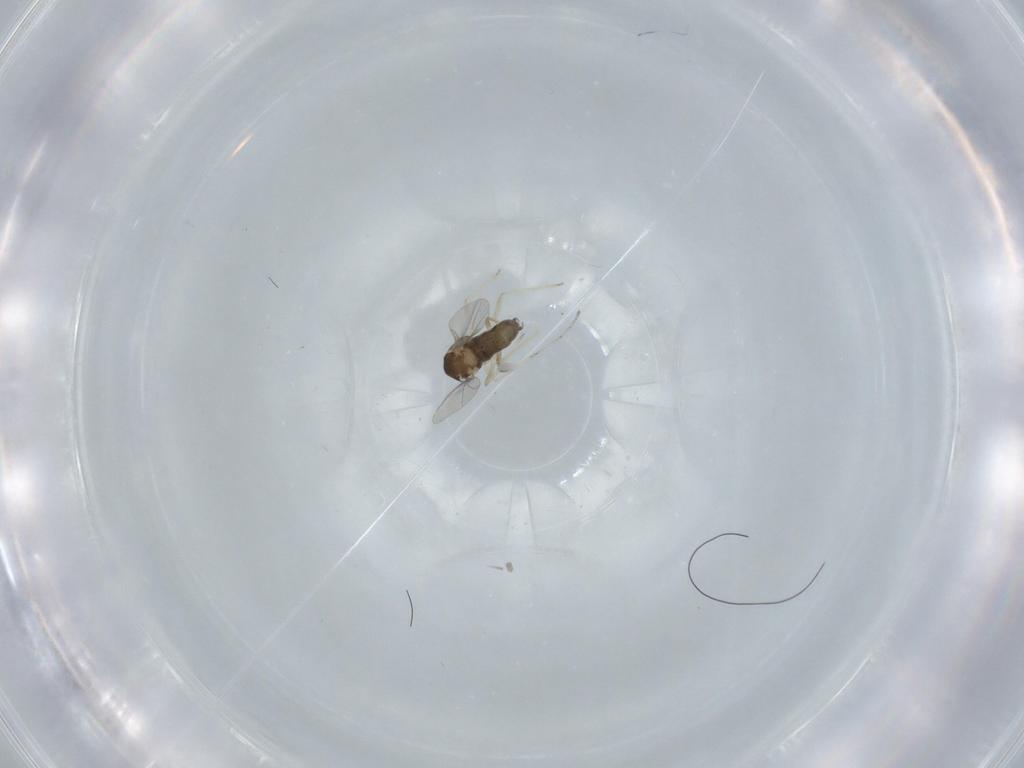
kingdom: Animalia
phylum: Arthropoda
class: Insecta
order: Diptera
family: Cecidomyiidae
